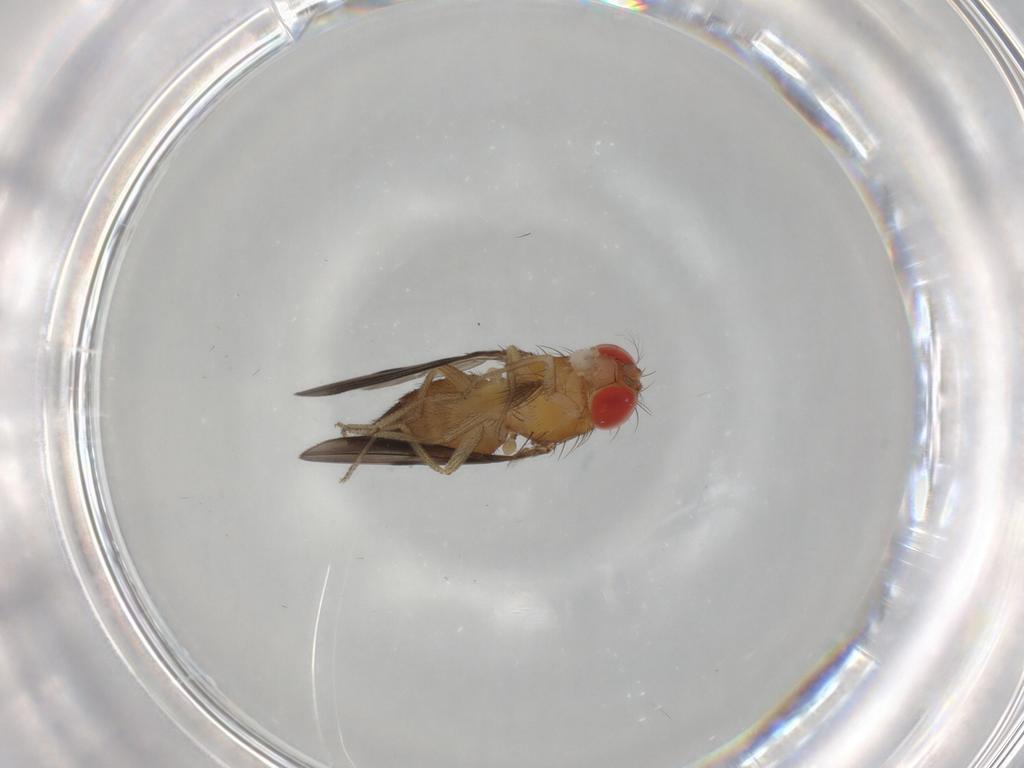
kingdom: Animalia
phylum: Arthropoda
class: Insecta
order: Diptera
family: Drosophilidae
